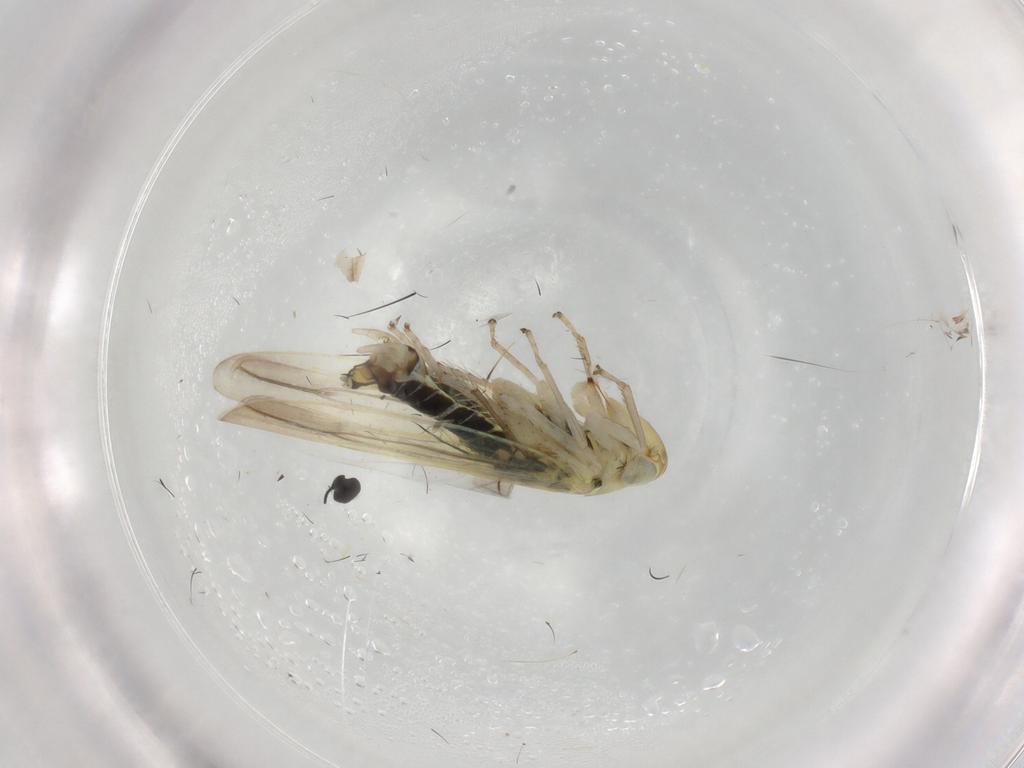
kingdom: Animalia
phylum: Arthropoda
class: Insecta
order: Hemiptera
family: Cicadellidae
